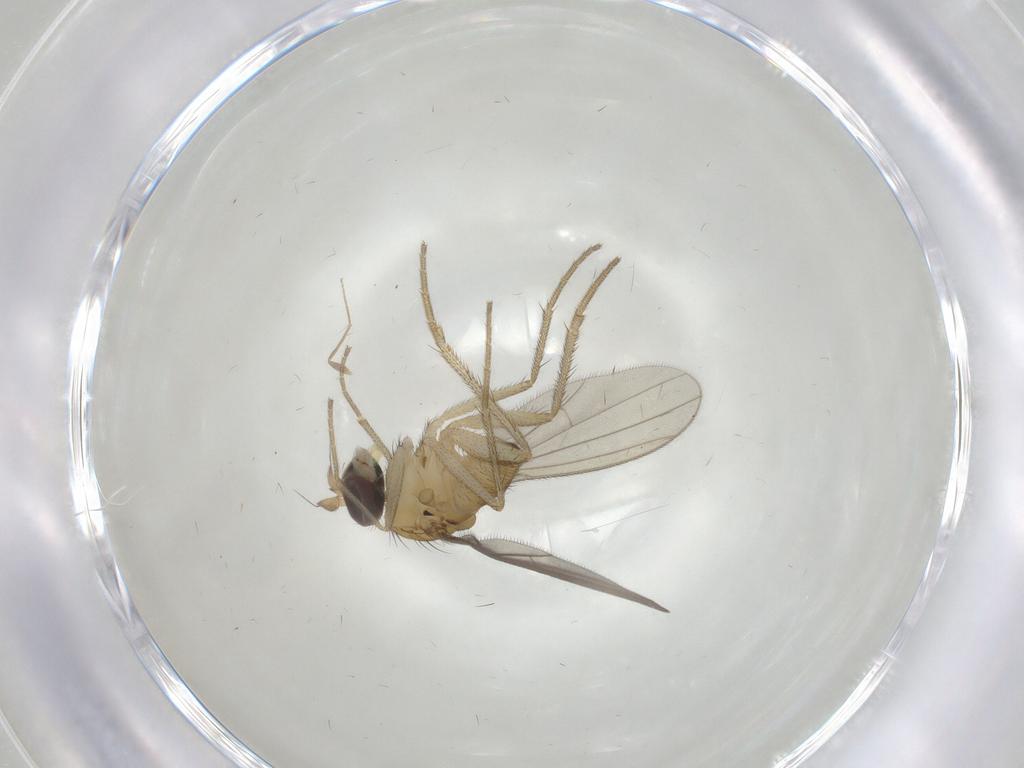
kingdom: Animalia
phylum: Arthropoda
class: Insecta
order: Diptera
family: Dolichopodidae
